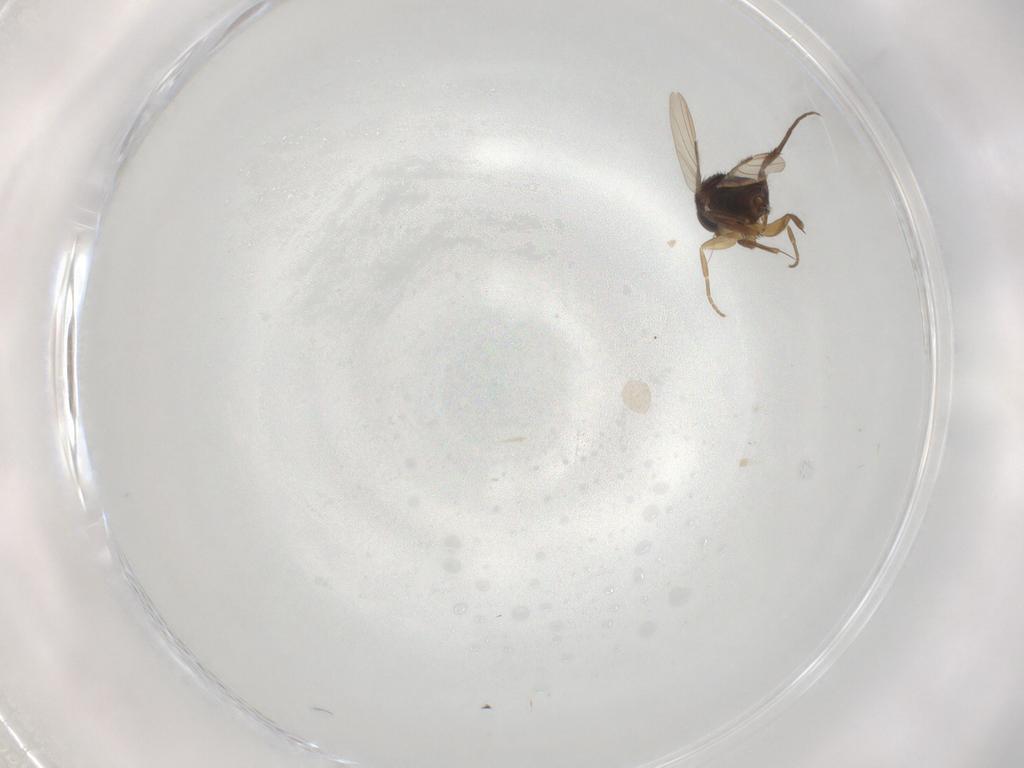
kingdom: Animalia
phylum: Arthropoda
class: Insecta
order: Diptera
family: Phoridae
